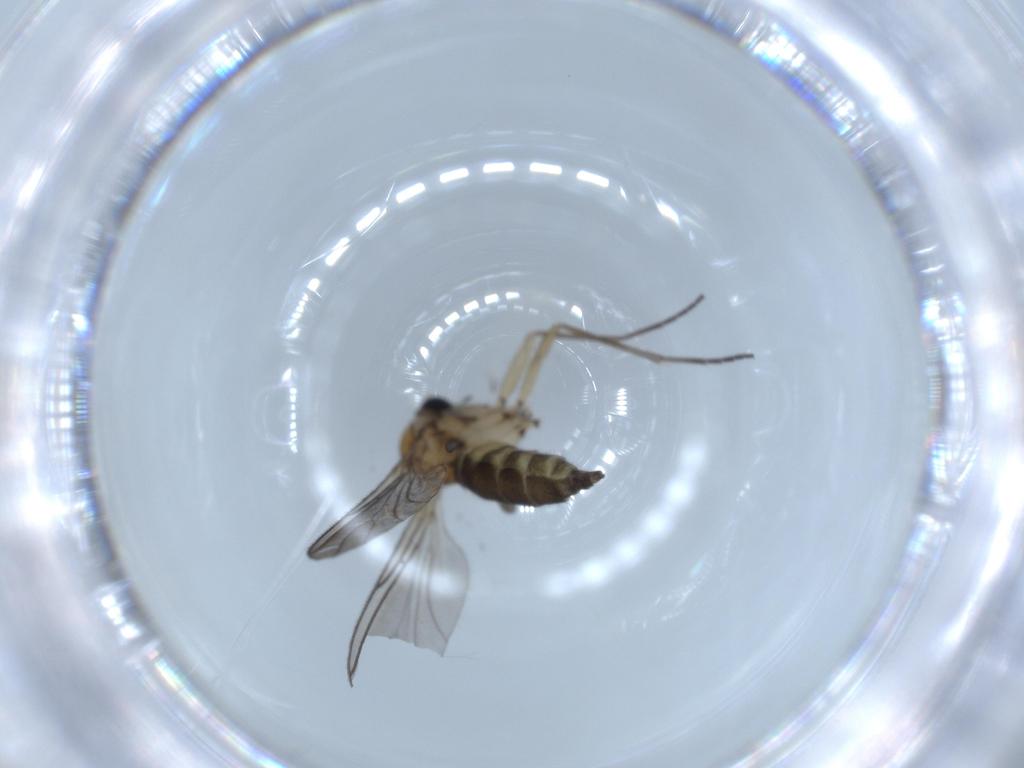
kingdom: Animalia
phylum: Arthropoda
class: Insecta
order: Diptera
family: Sciaridae
